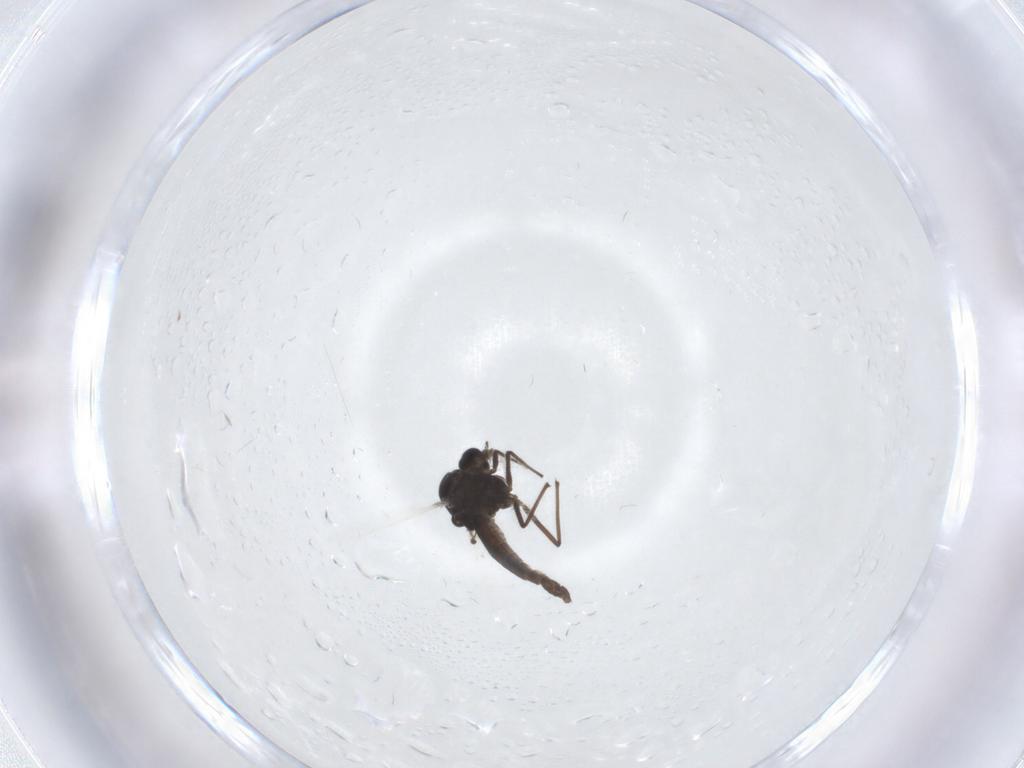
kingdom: Animalia
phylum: Arthropoda
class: Insecta
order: Diptera
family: Chironomidae
